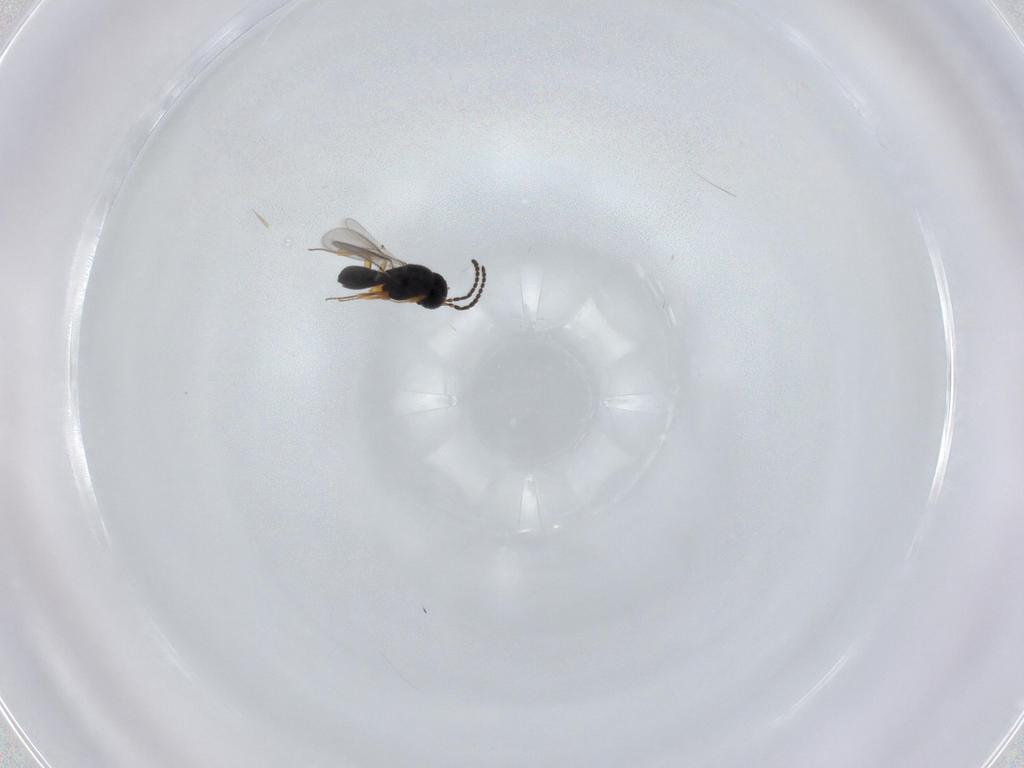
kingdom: Animalia
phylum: Arthropoda
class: Insecta
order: Hymenoptera
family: Scelionidae
